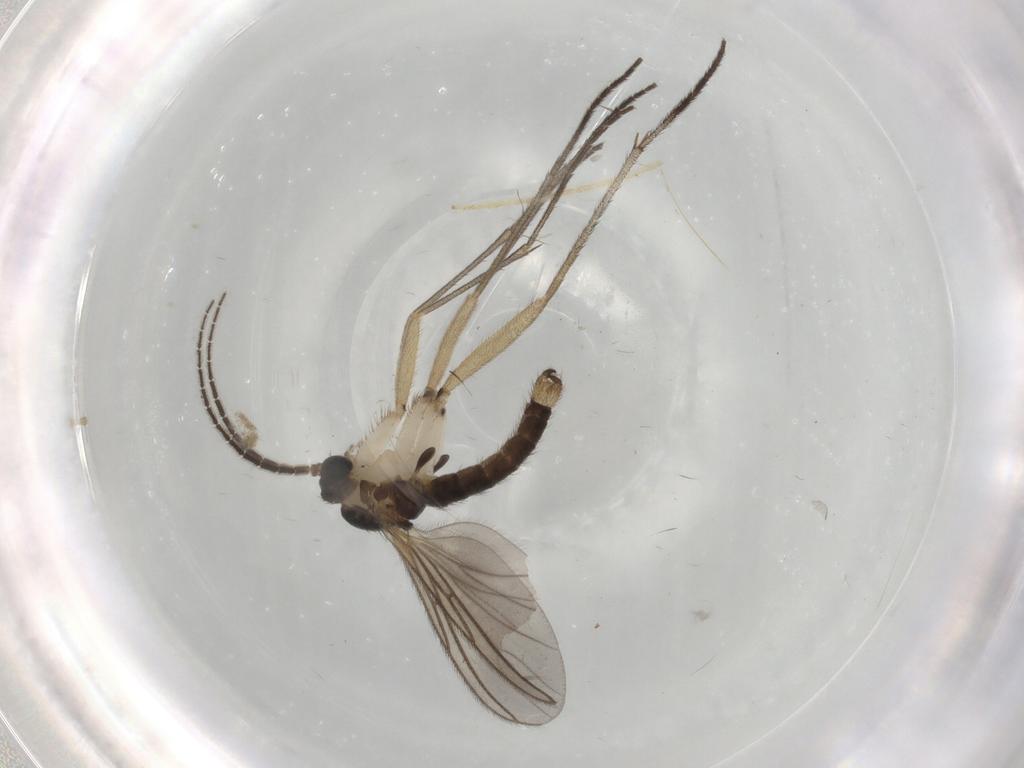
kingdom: Animalia
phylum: Arthropoda
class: Insecta
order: Diptera
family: Sciaridae
